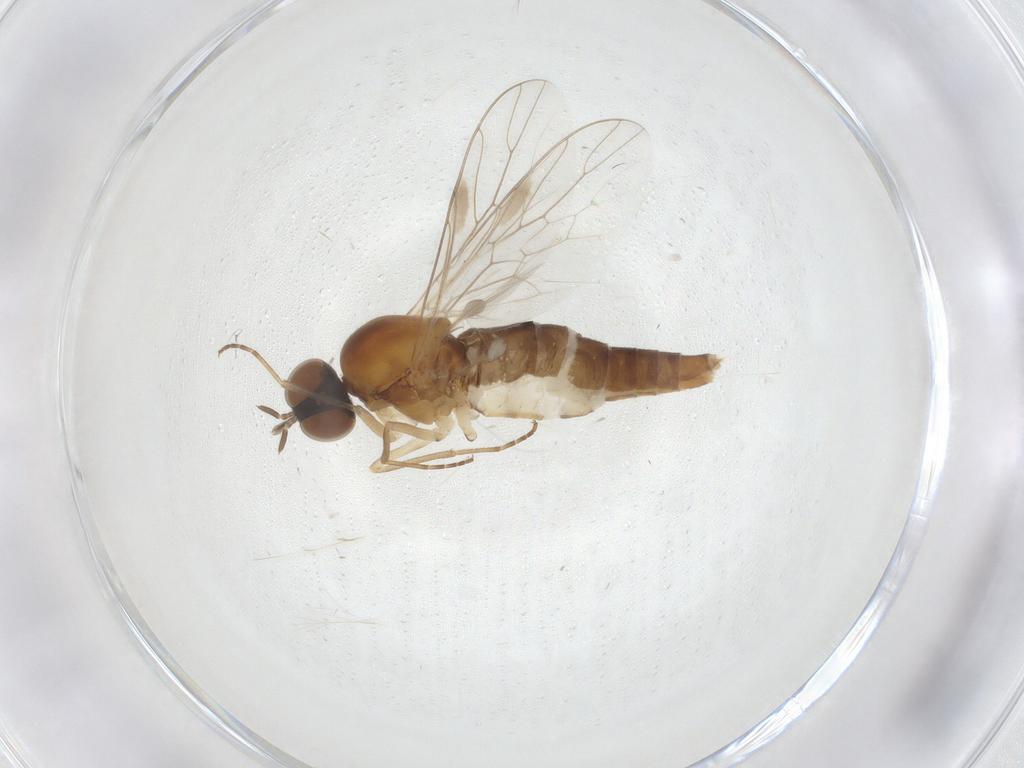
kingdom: Animalia
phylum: Arthropoda
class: Insecta
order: Diptera
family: Scenopinidae
